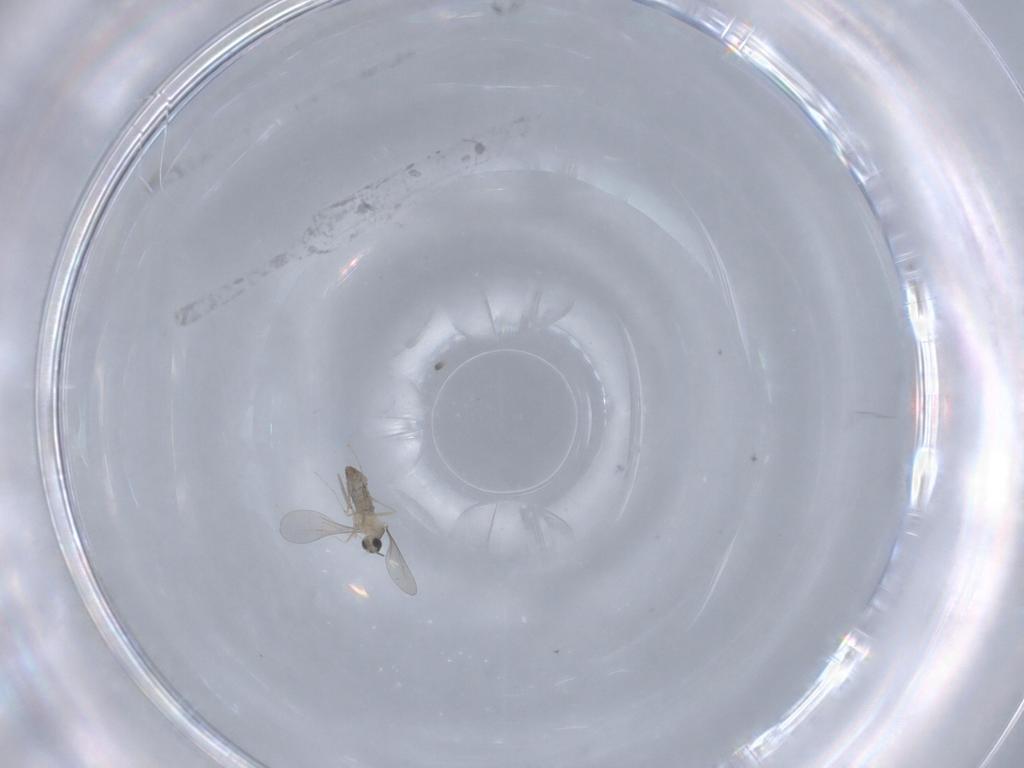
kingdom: Animalia
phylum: Arthropoda
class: Insecta
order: Diptera
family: Cecidomyiidae
